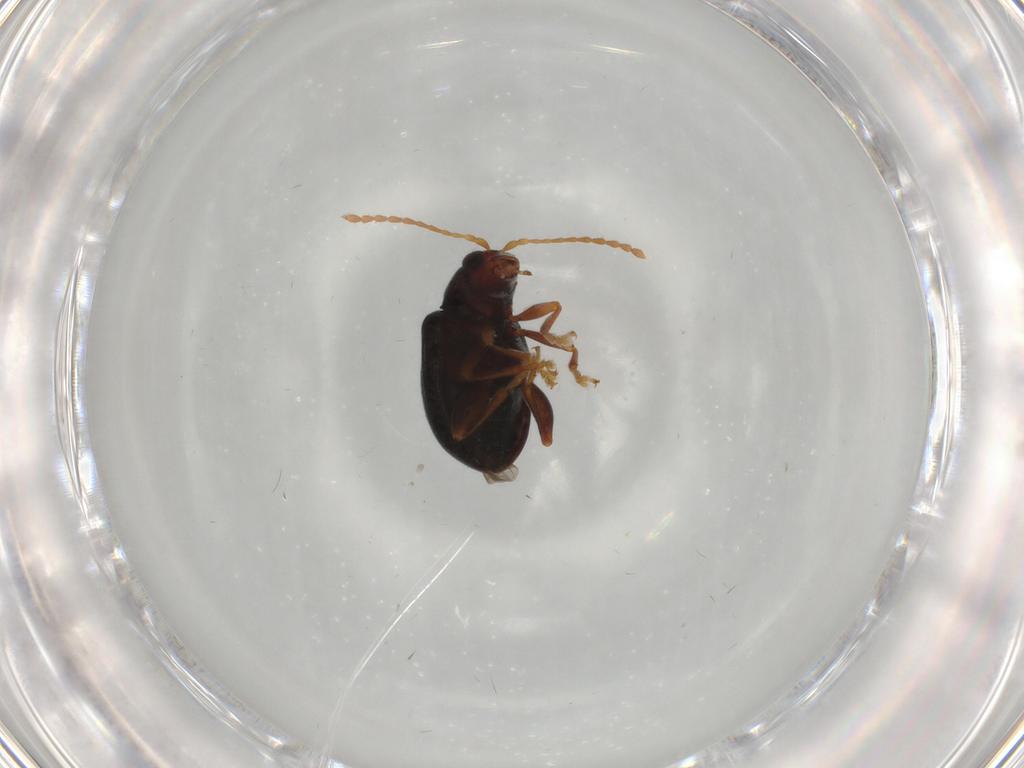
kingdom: Animalia
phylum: Arthropoda
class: Insecta
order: Coleoptera
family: Chrysomelidae
